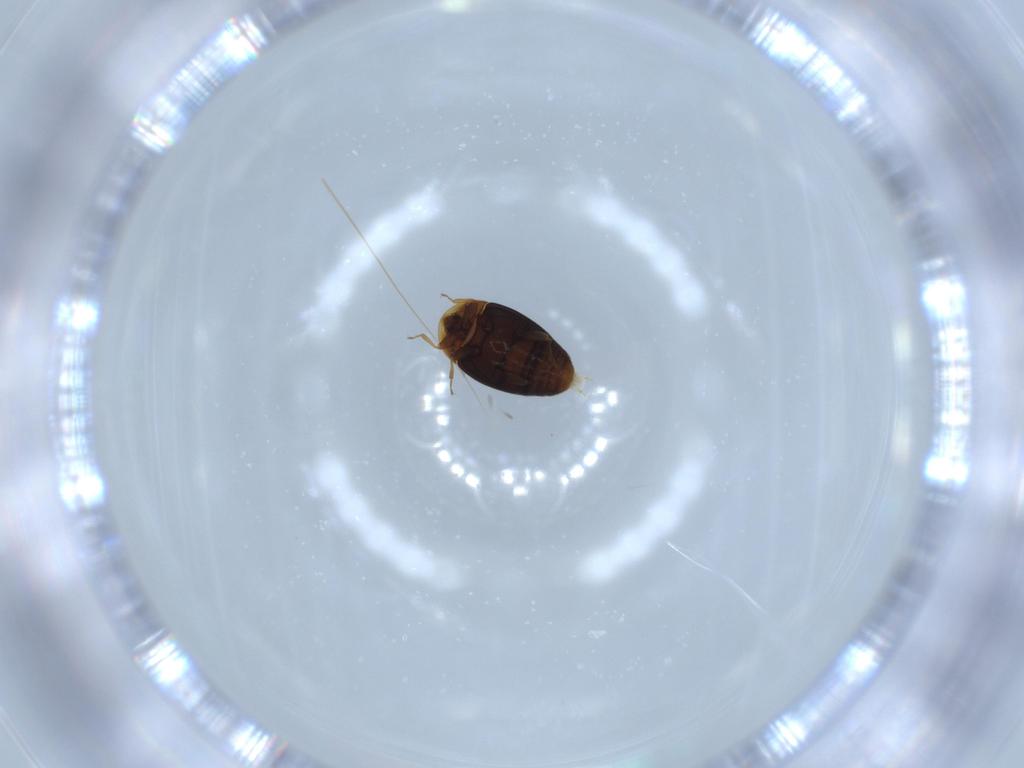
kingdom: Animalia
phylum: Arthropoda
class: Insecta
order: Coleoptera
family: Corylophidae
